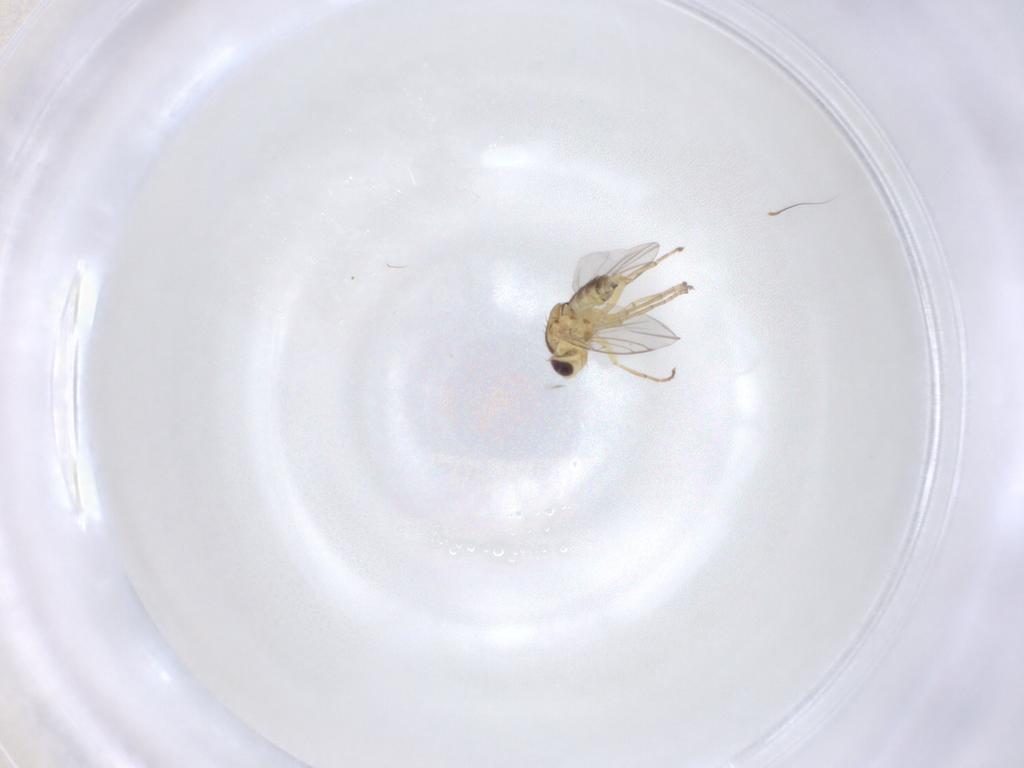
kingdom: Animalia
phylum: Arthropoda
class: Insecta
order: Diptera
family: Agromyzidae
